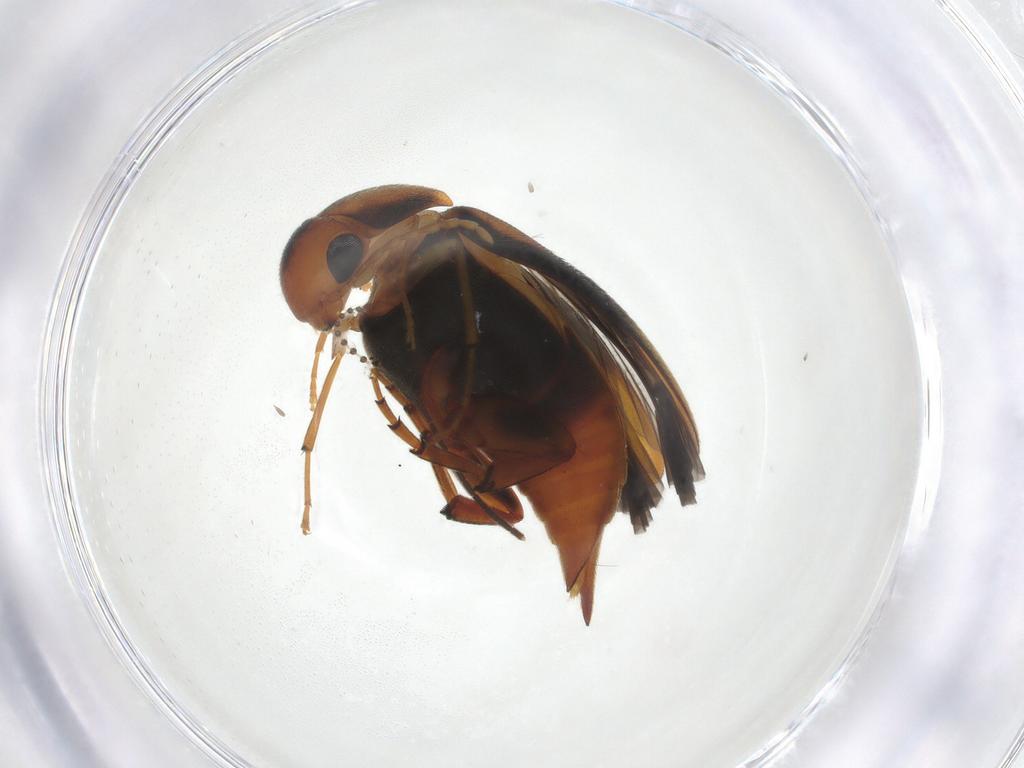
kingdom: Animalia
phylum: Arthropoda
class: Insecta
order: Coleoptera
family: Mordellidae
